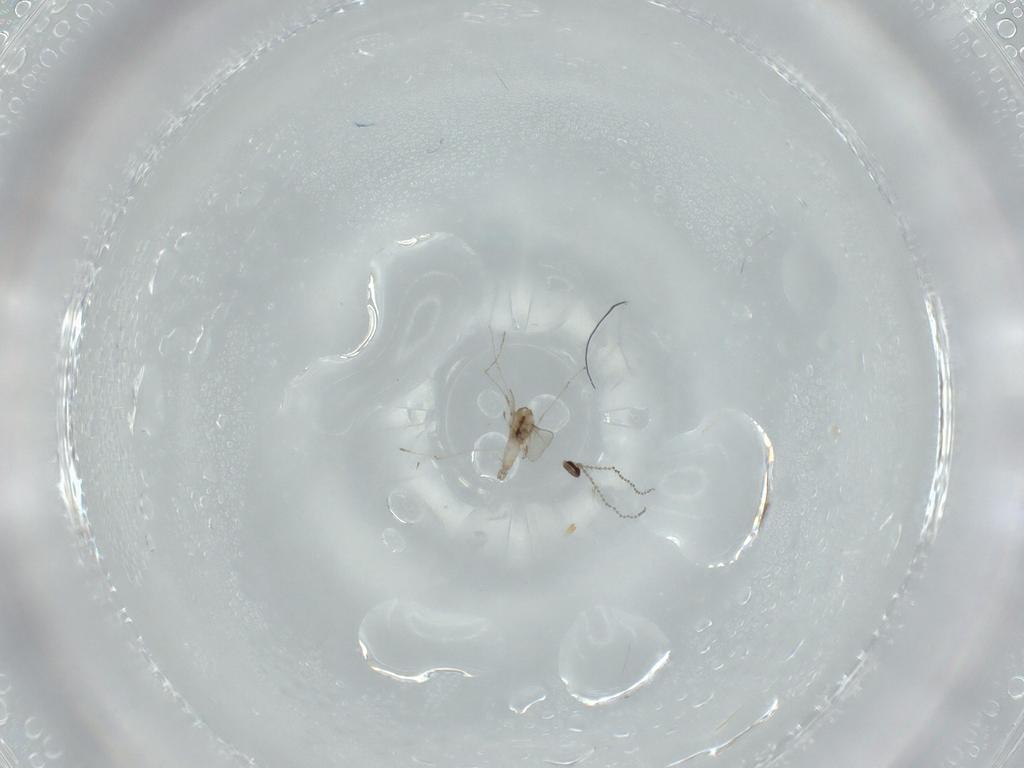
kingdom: Animalia
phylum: Arthropoda
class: Insecta
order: Diptera
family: Cecidomyiidae
